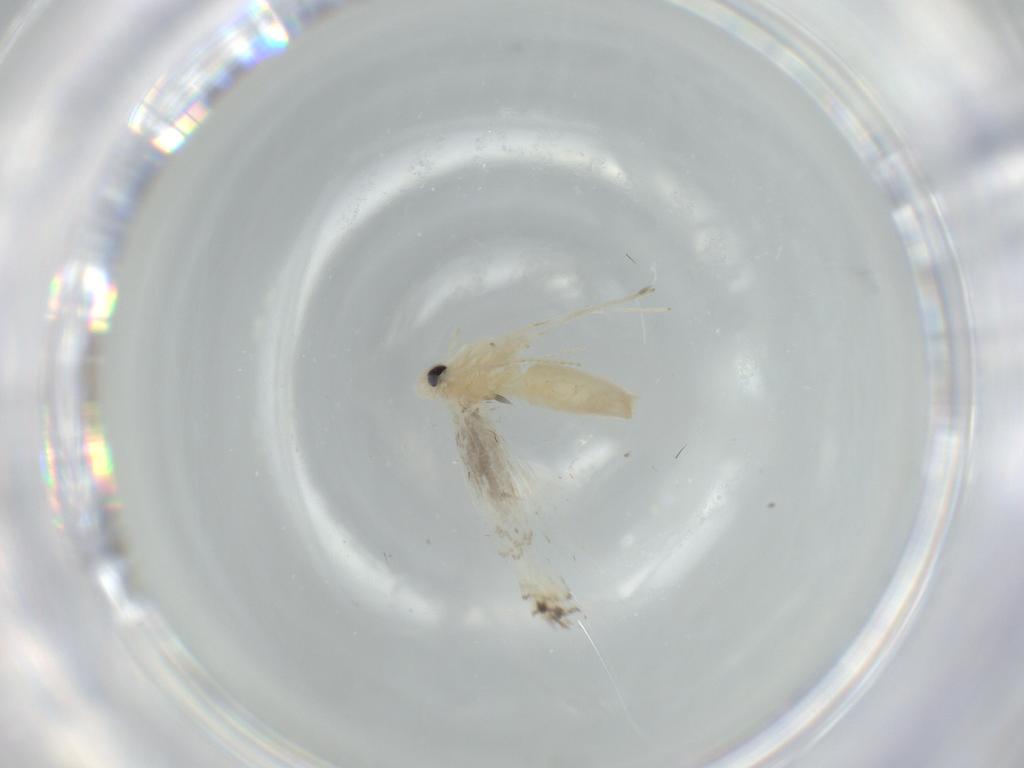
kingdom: Animalia
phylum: Arthropoda
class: Insecta
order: Lepidoptera
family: Gracillariidae
